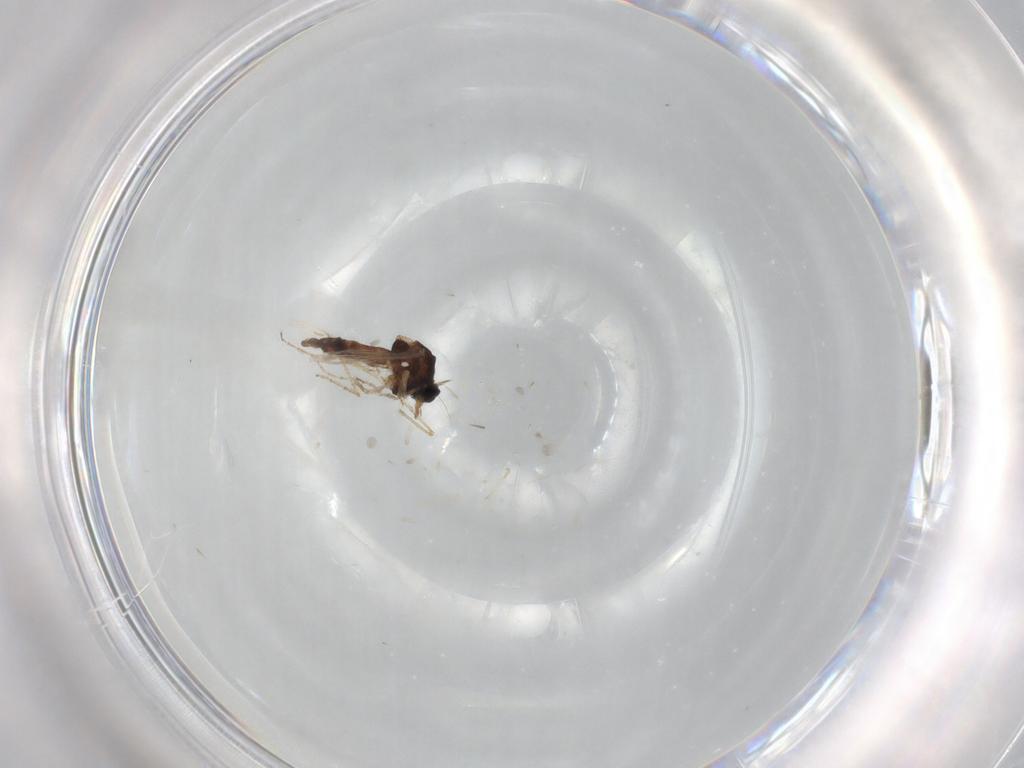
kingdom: Animalia
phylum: Arthropoda
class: Insecta
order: Diptera
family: Ceratopogonidae
